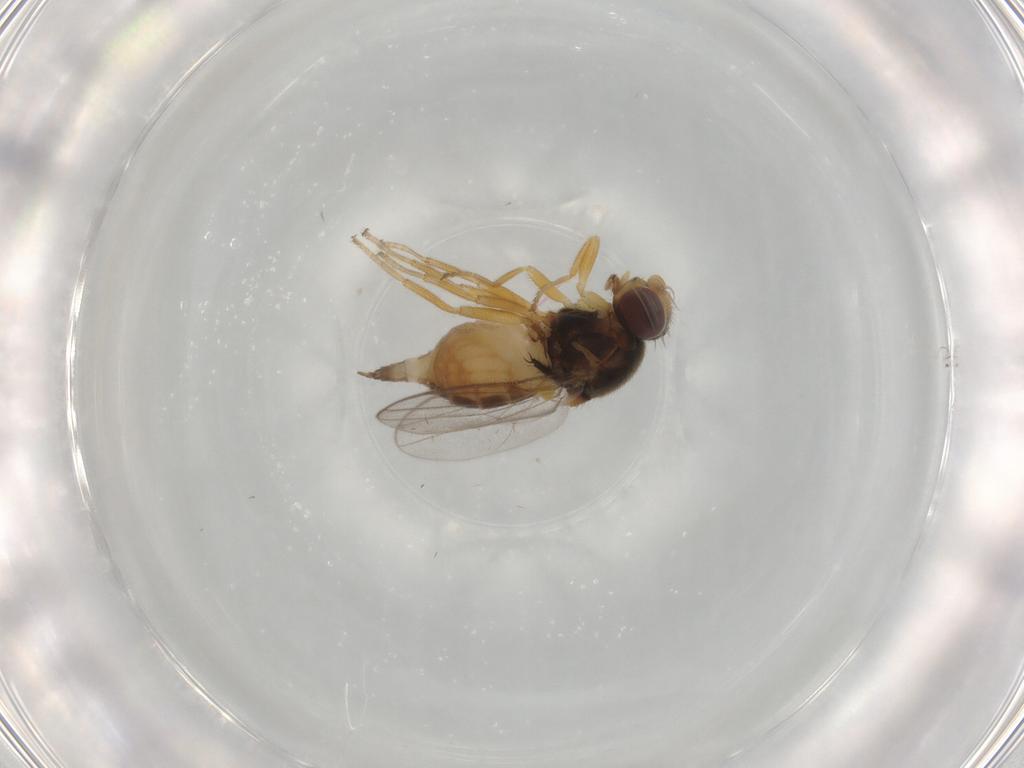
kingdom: Animalia
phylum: Arthropoda
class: Insecta
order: Diptera
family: Chloropidae
